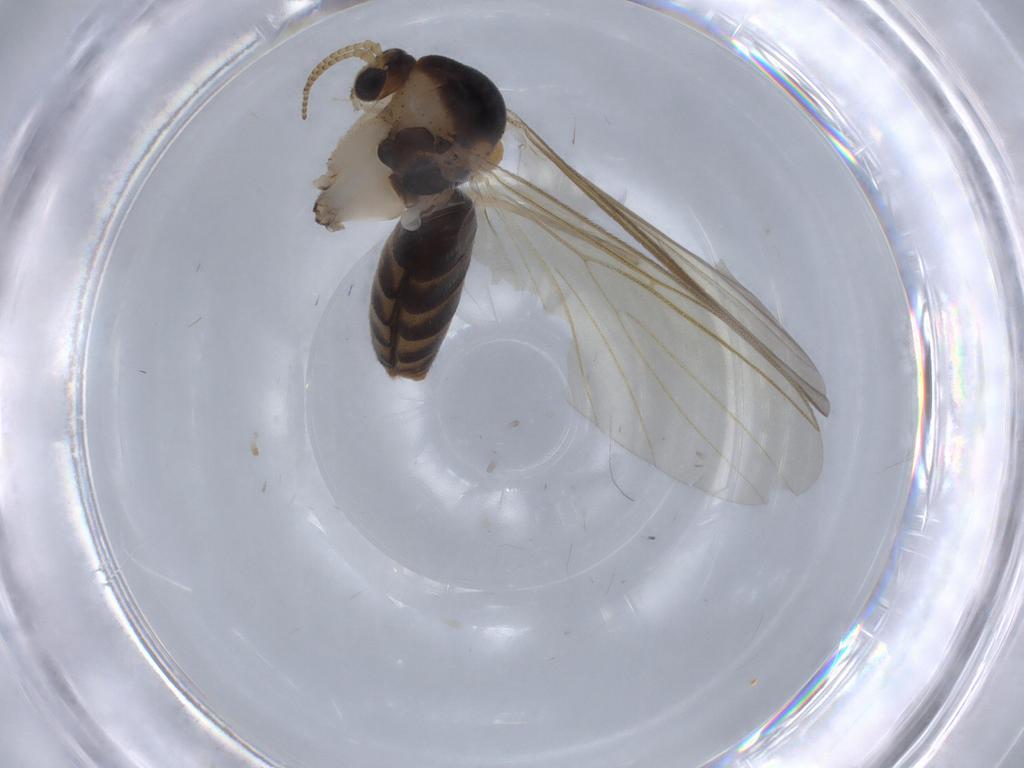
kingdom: Animalia
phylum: Arthropoda
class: Insecta
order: Diptera
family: Mycetophilidae
